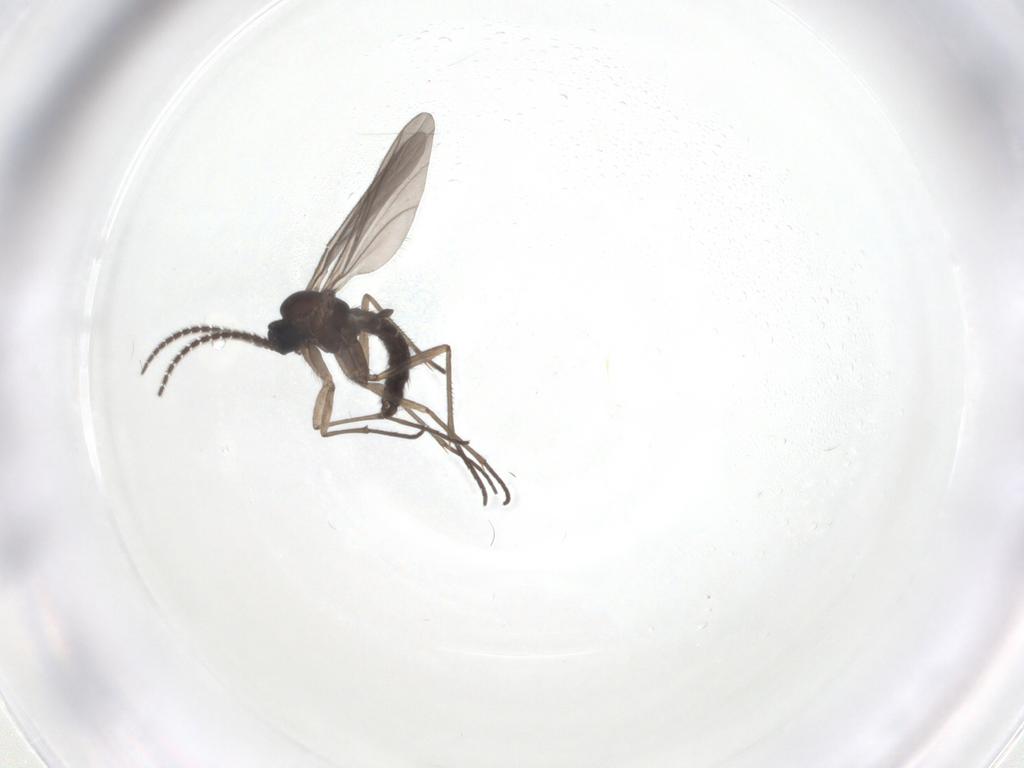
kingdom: Animalia
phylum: Arthropoda
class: Insecta
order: Diptera
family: Sciaridae
